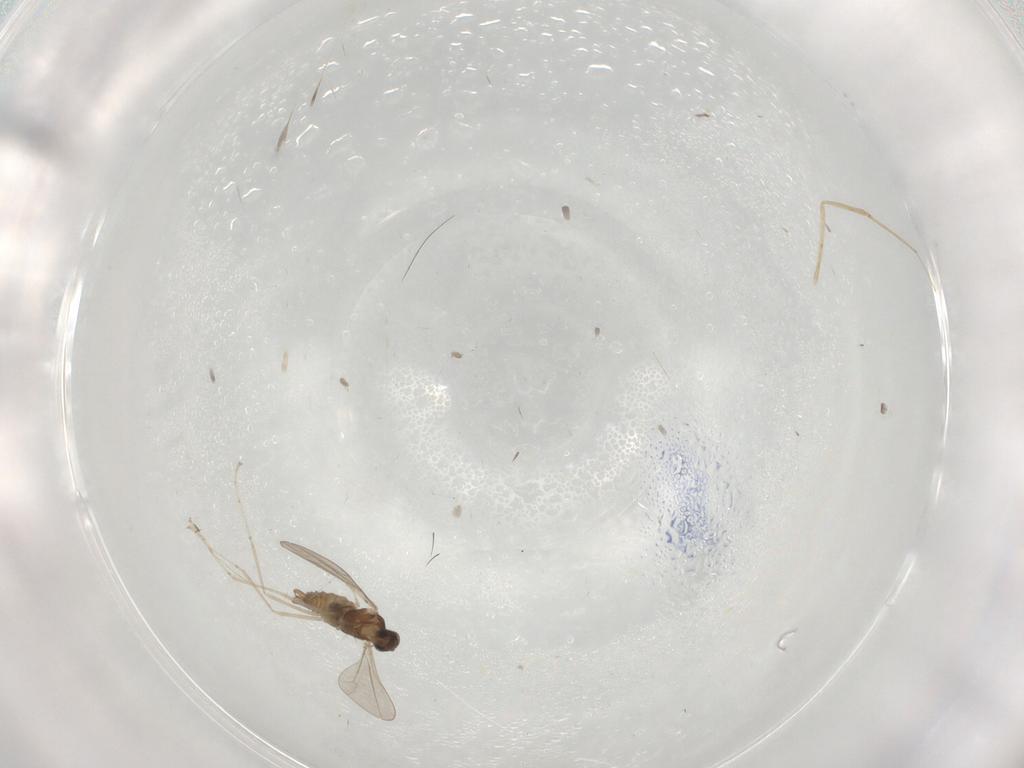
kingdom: Animalia
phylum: Arthropoda
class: Insecta
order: Diptera
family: Cecidomyiidae
